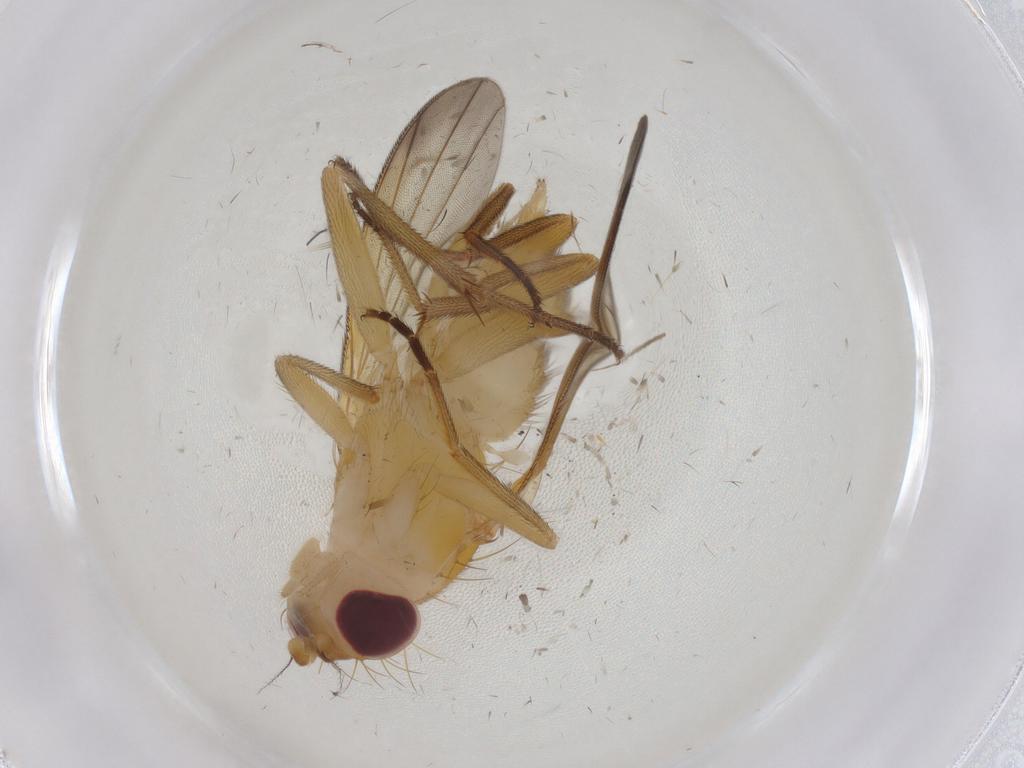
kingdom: Animalia
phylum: Arthropoda
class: Insecta
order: Diptera
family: Clusiidae
